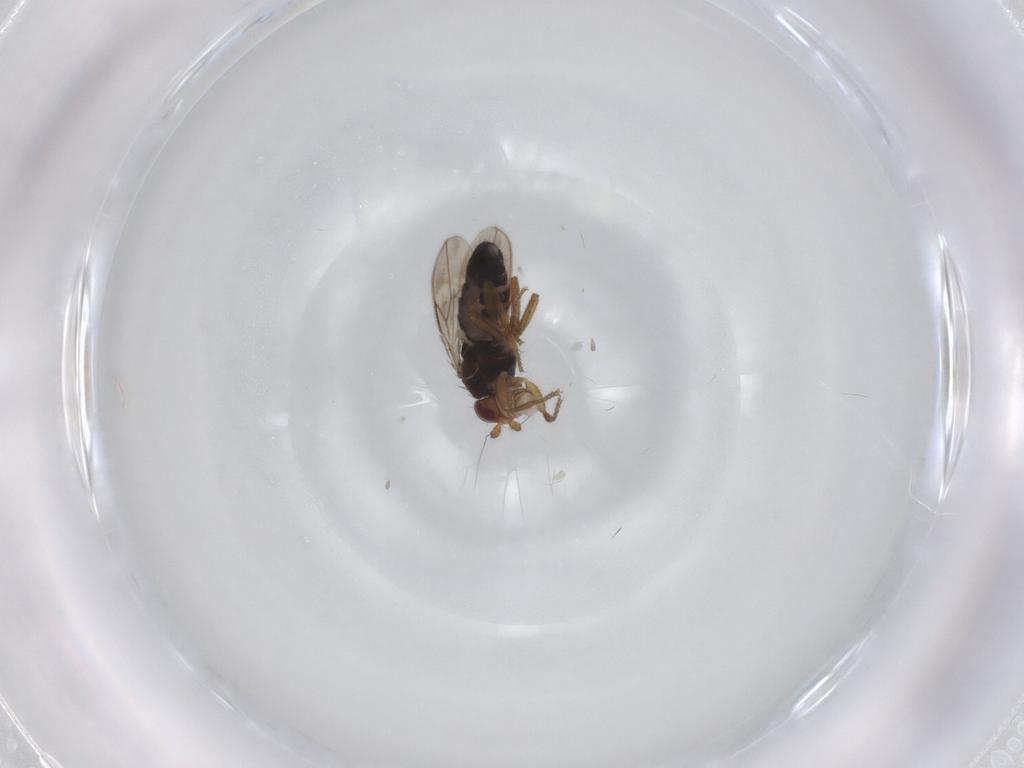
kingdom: Animalia
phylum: Arthropoda
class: Insecta
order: Diptera
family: Sphaeroceridae
